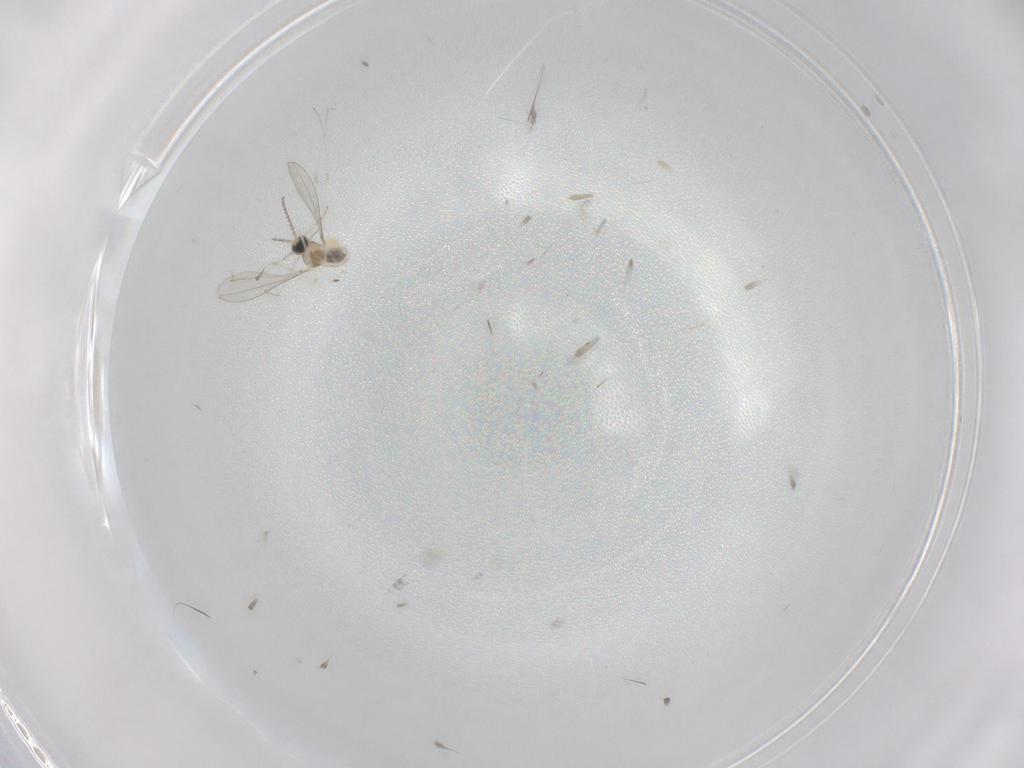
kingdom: Animalia
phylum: Arthropoda
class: Insecta
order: Diptera
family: Cecidomyiidae
